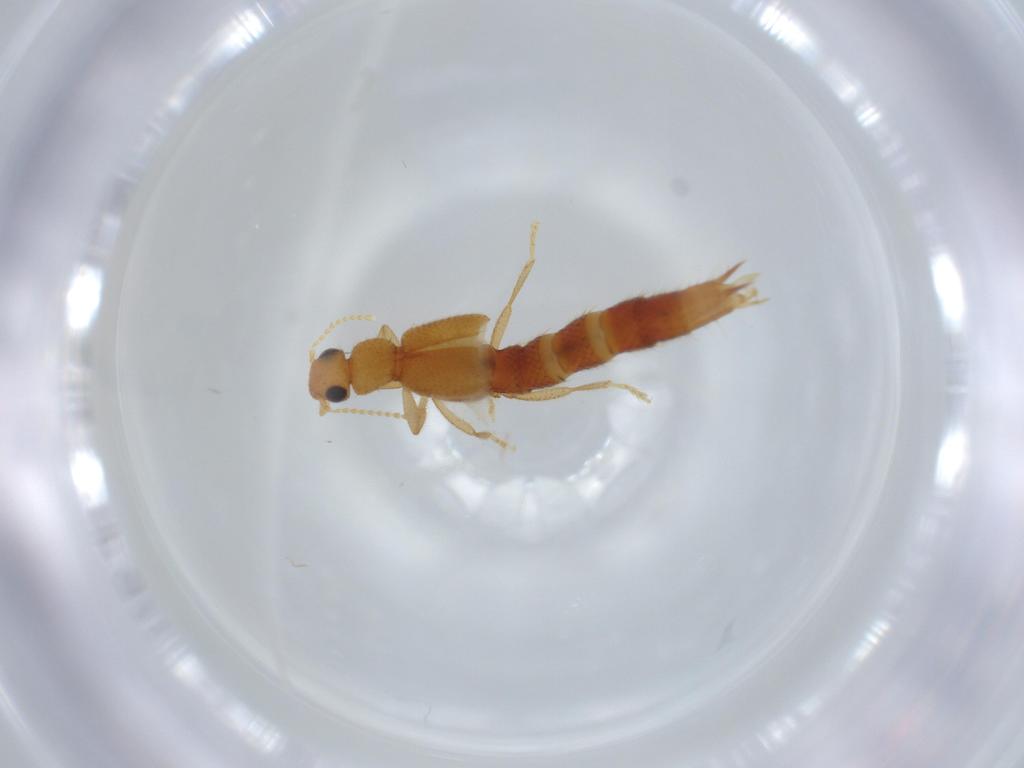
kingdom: Animalia
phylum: Arthropoda
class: Insecta
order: Coleoptera
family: Staphylinidae
